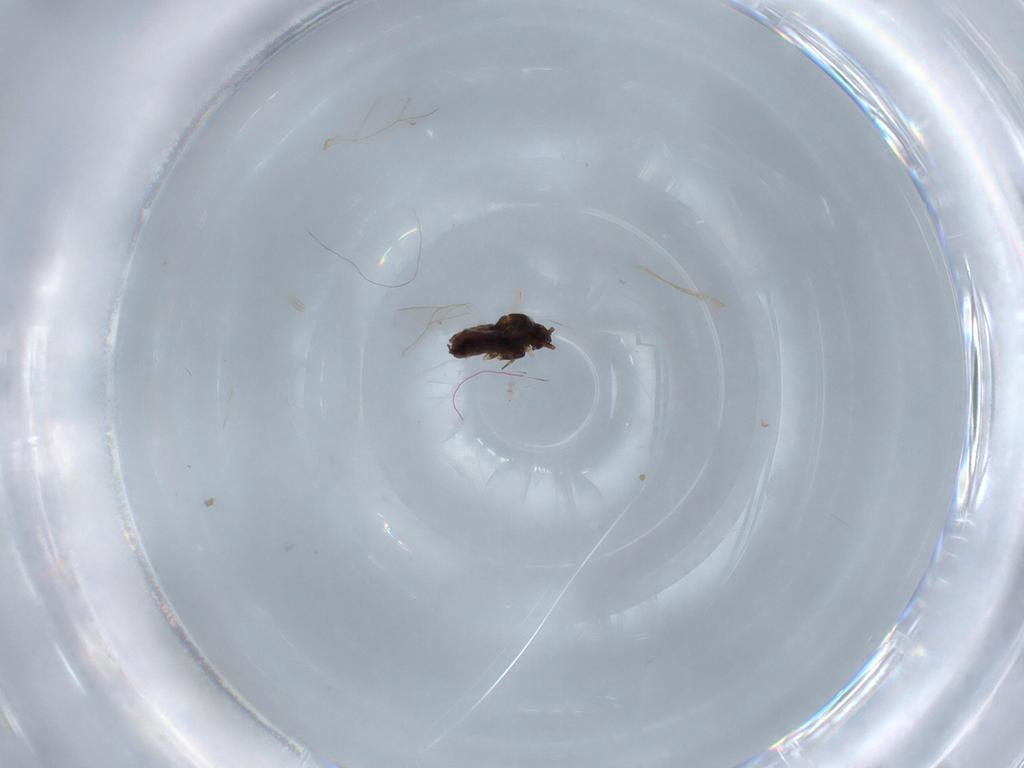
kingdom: Animalia
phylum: Arthropoda
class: Insecta
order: Hemiptera
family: Aphididae
